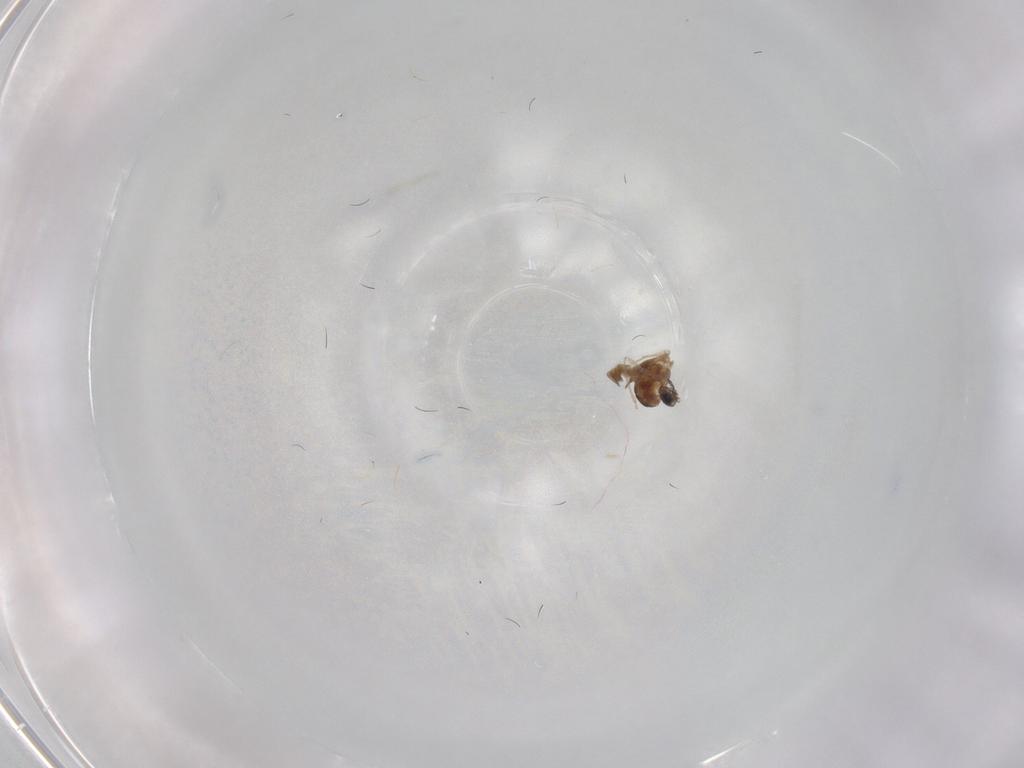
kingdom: Animalia
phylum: Arthropoda
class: Insecta
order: Blattodea
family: Blaberidae
